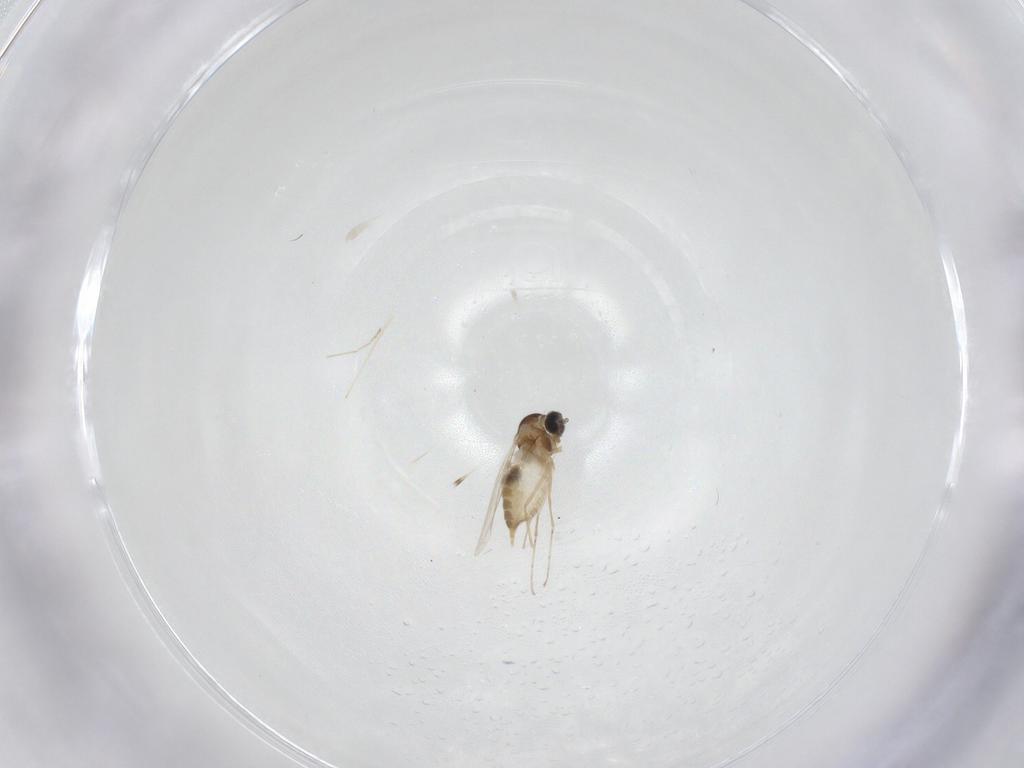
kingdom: Animalia
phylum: Arthropoda
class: Insecta
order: Diptera
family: Cecidomyiidae
